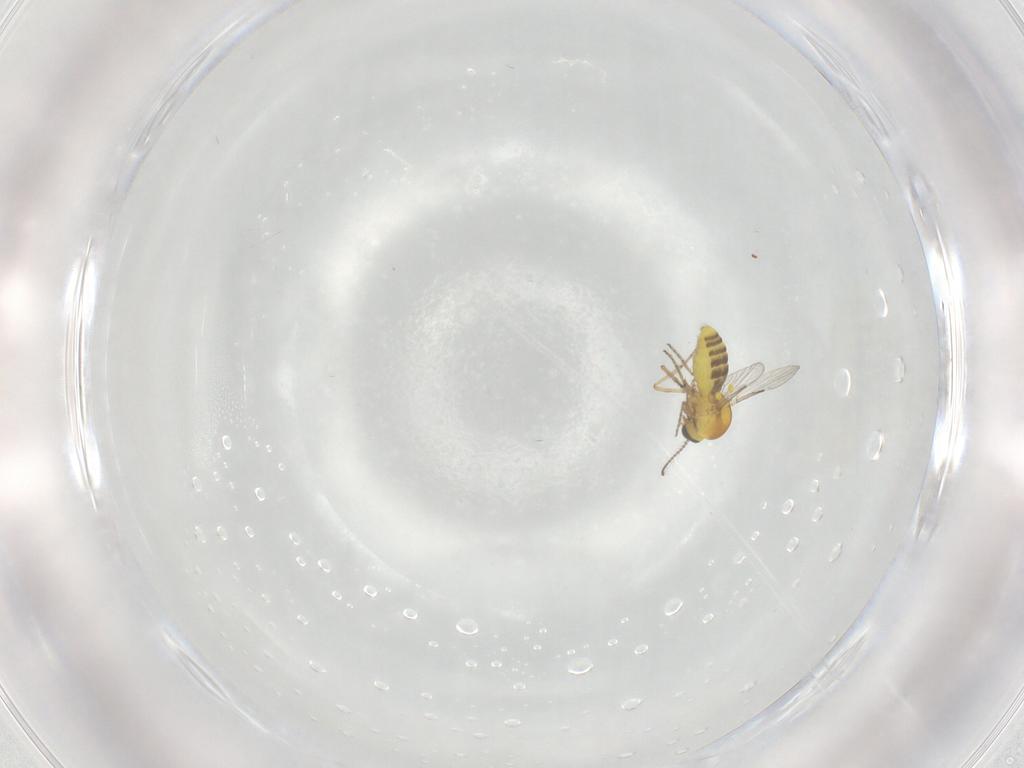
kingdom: Animalia
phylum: Arthropoda
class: Insecta
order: Diptera
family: Ceratopogonidae
